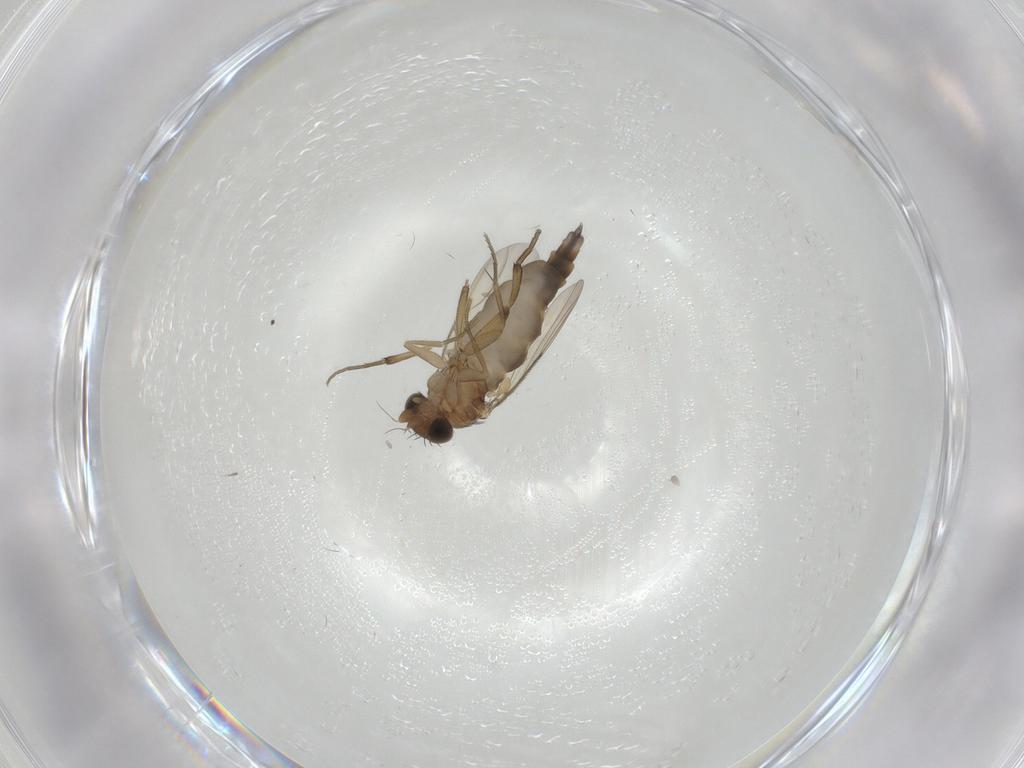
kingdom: Animalia
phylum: Arthropoda
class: Insecta
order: Diptera
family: Phoridae
